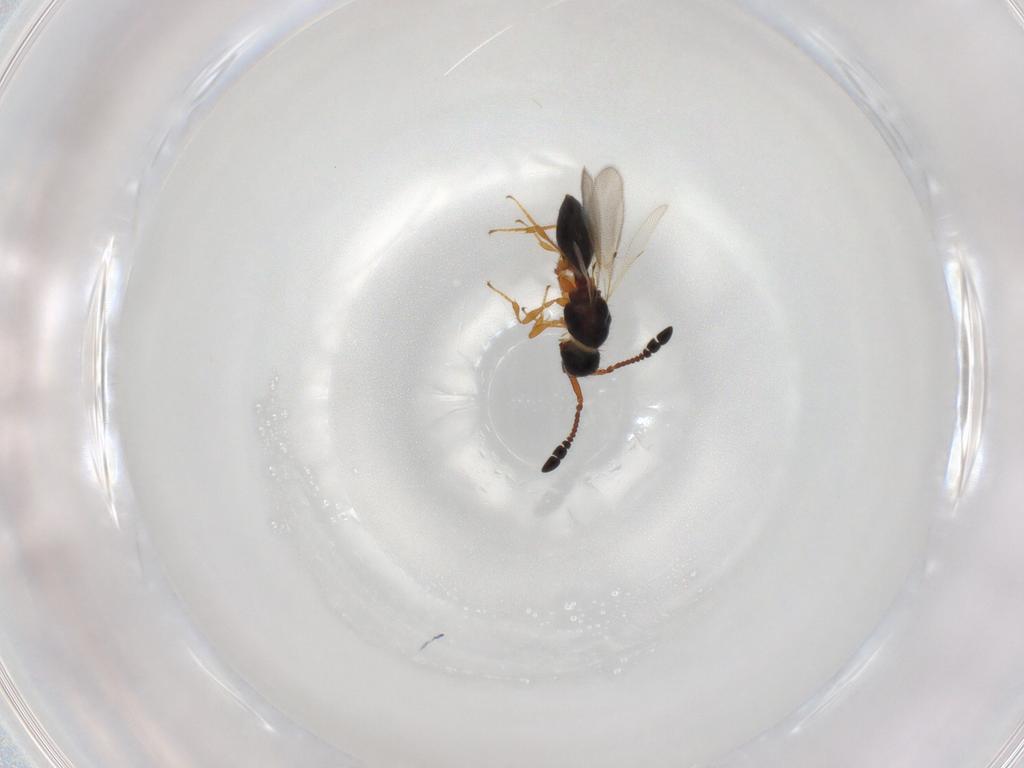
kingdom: Animalia
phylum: Arthropoda
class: Insecta
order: Hymenoptera
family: Diapriidae
